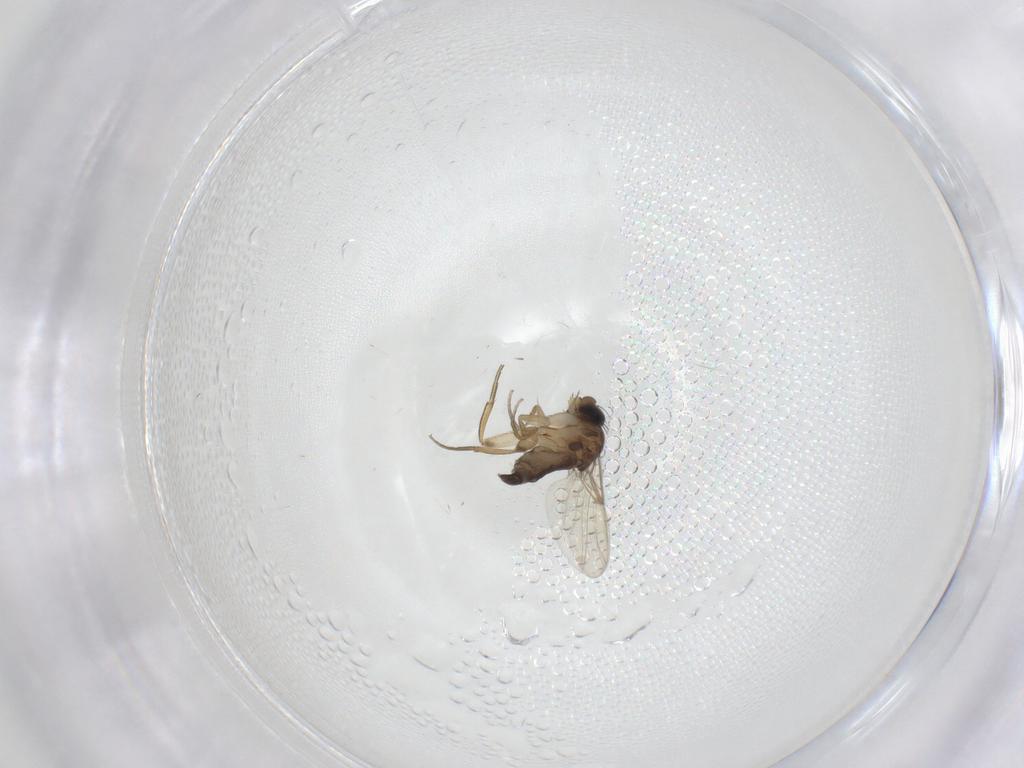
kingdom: Animalia
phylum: Arthropoda
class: Insecta
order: Diptera
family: Phoridae
